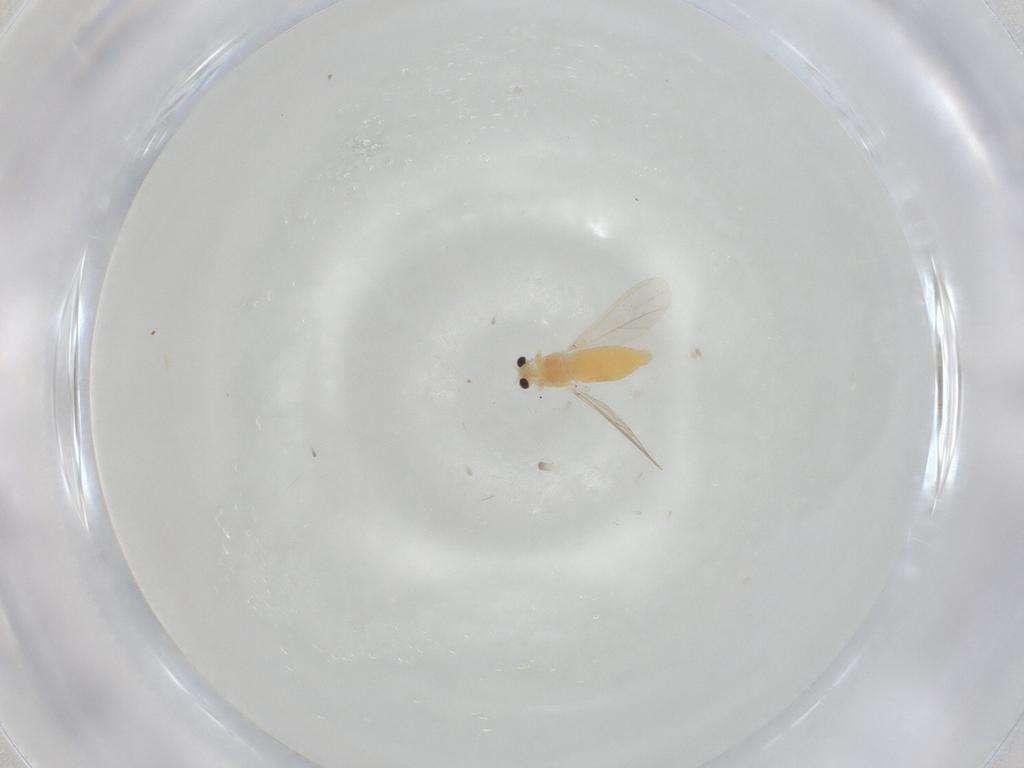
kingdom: Animalia
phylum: Arthropoda
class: Insecta
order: Diptera
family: Chironomidae
